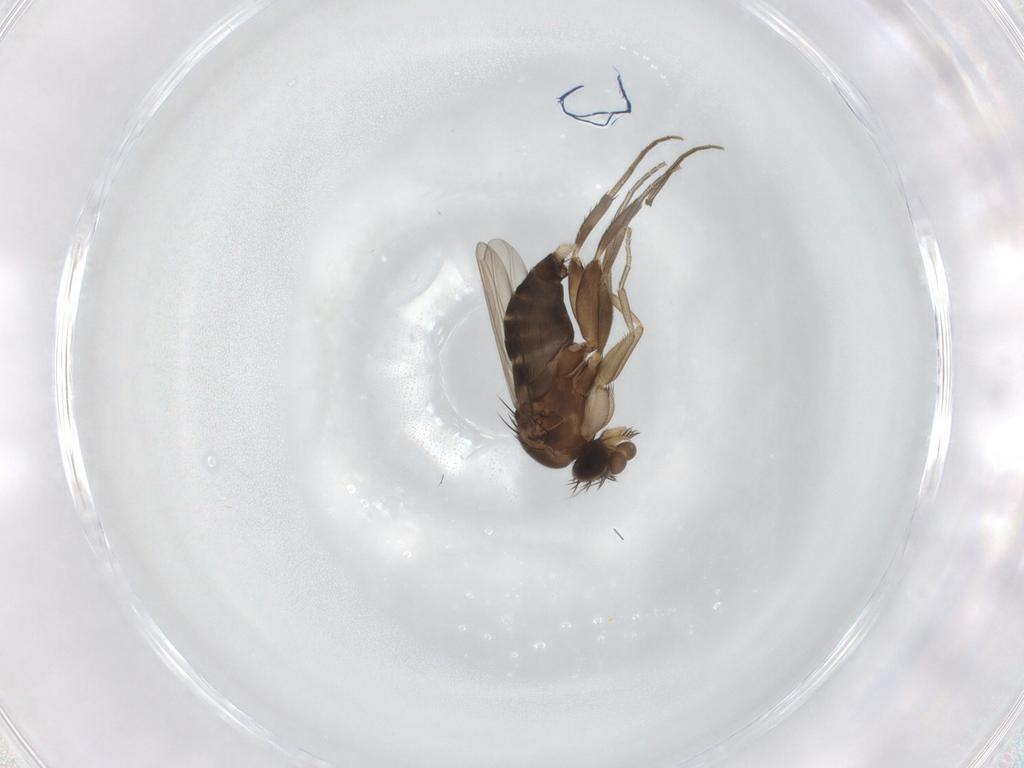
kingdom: Animalia
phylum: Arthropoda
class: Insecta
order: Diptera
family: Phoridae
